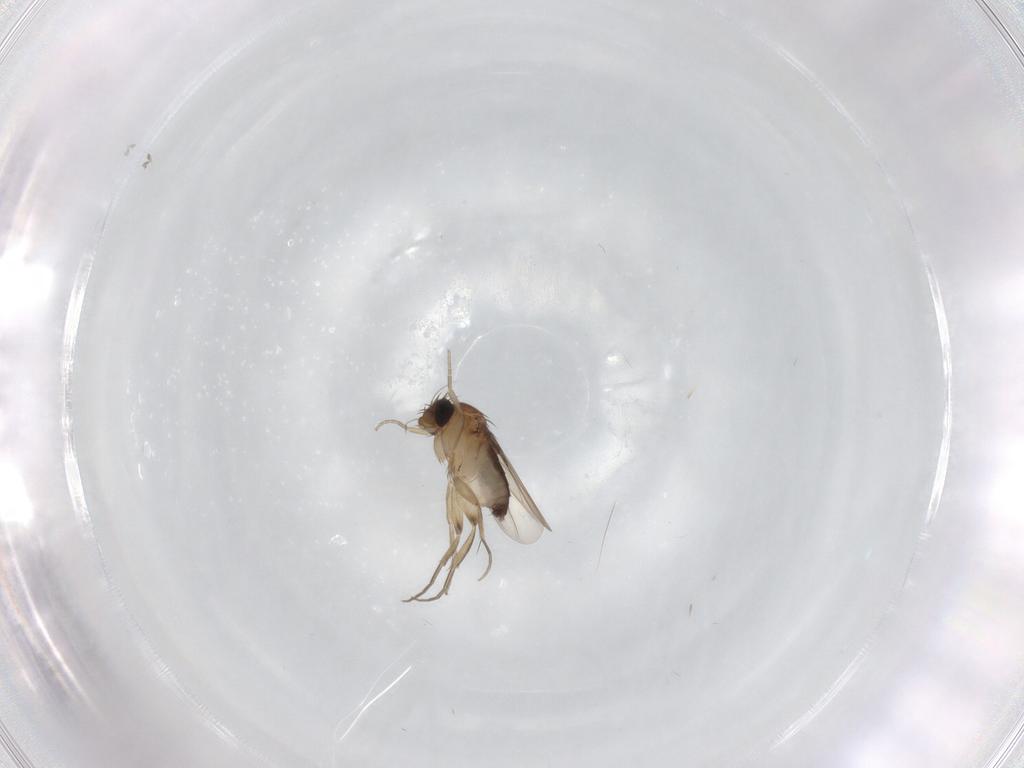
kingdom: Animalia
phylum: Arthropoda
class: Insecta
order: Diptera
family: Phoridae
